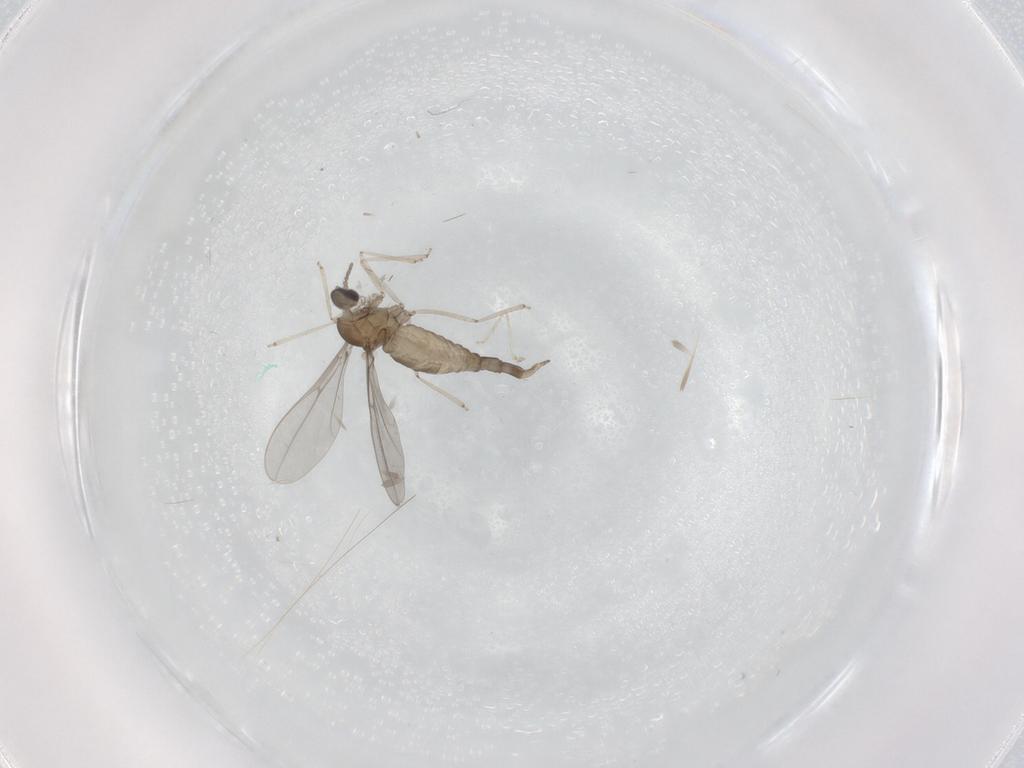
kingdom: Animalia
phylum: Arthropoda
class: Insecta
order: Diptera
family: Cecidomyiidae
